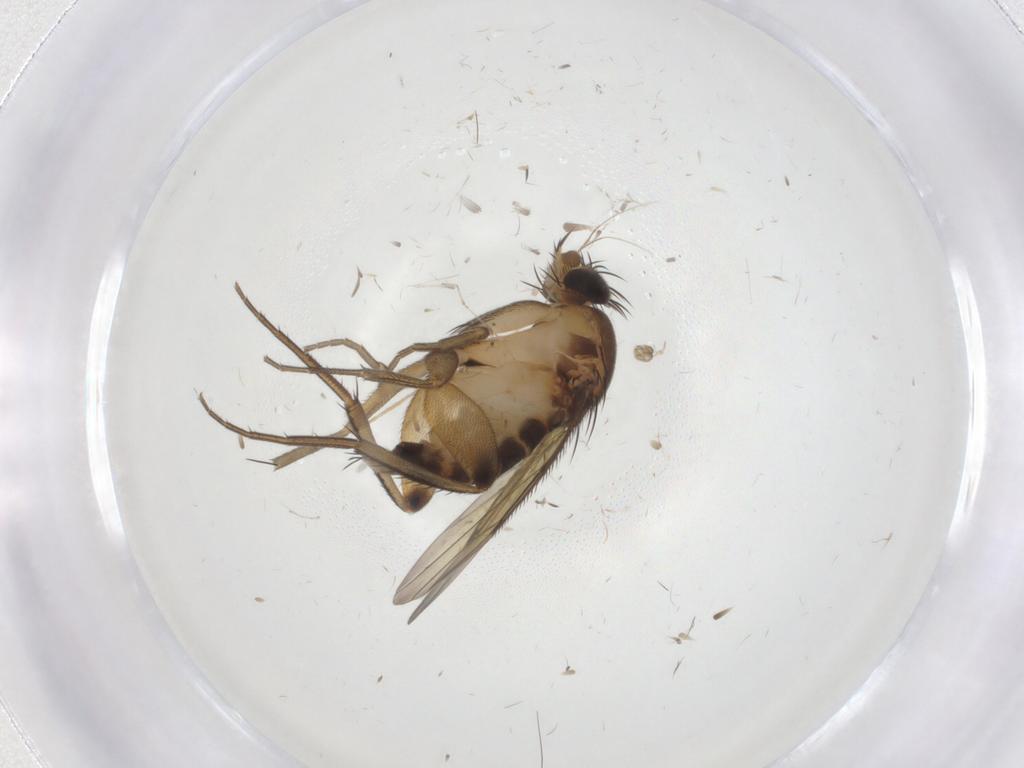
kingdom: Animalia
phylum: Arthropoda
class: Insecta
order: Diptera
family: Phoridae
